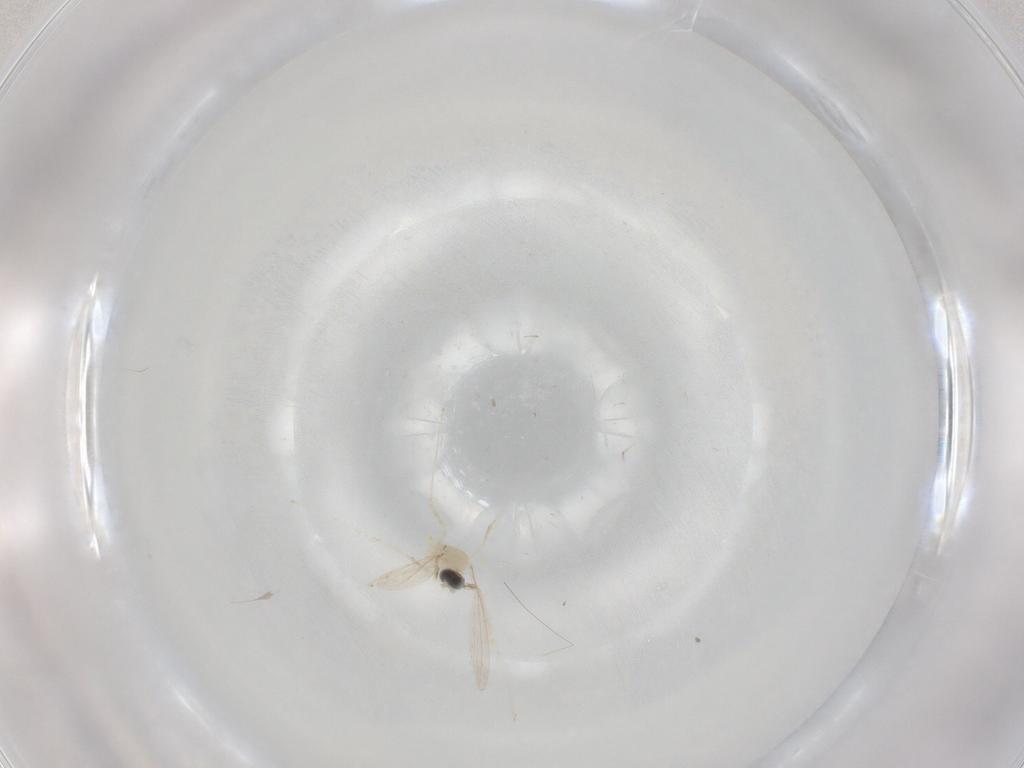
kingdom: Animalia
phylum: Arthropoda
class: Insecta
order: Diptera
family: Cecidomyiidae
